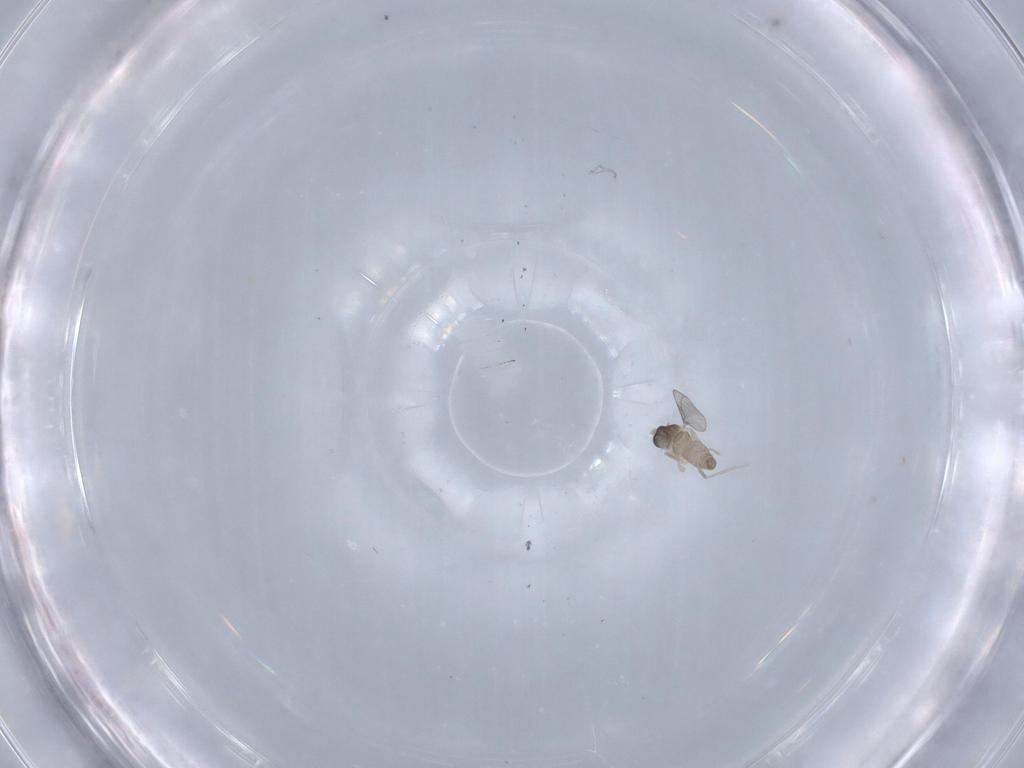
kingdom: Animalia
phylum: Arthropoda
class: Insecta
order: Diptera
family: Cecidomyiidae
